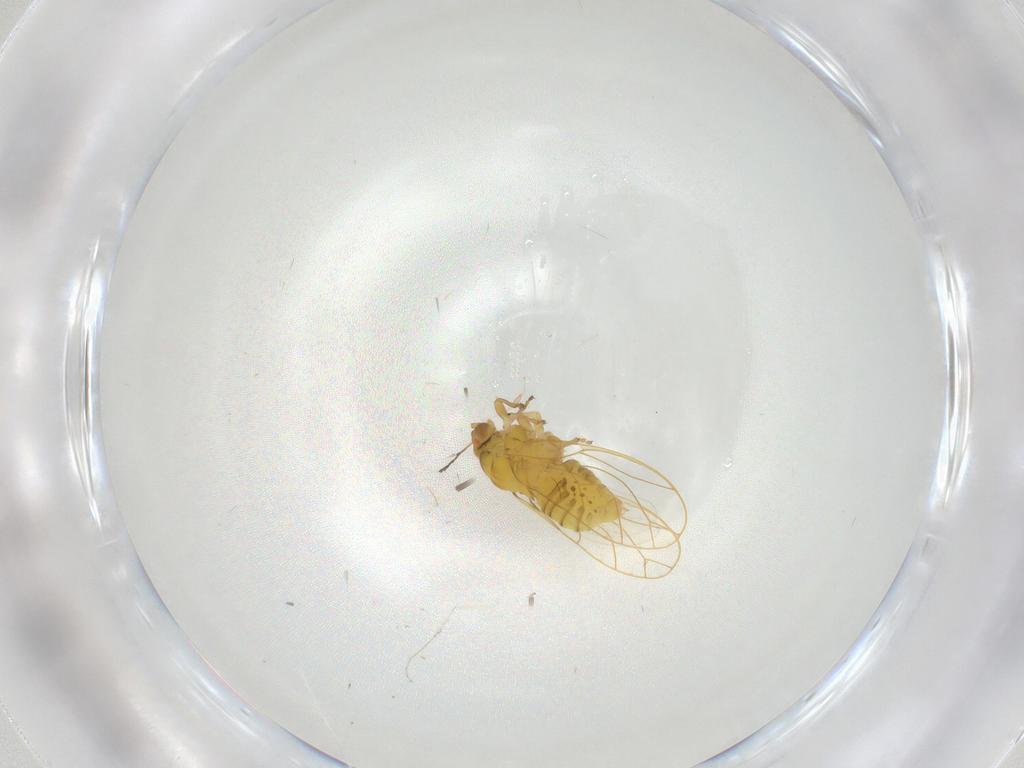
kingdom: Animalia
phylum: Arthropoda
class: Insecta
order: Hemiptera
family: Psylloidea_incertae_sedis
